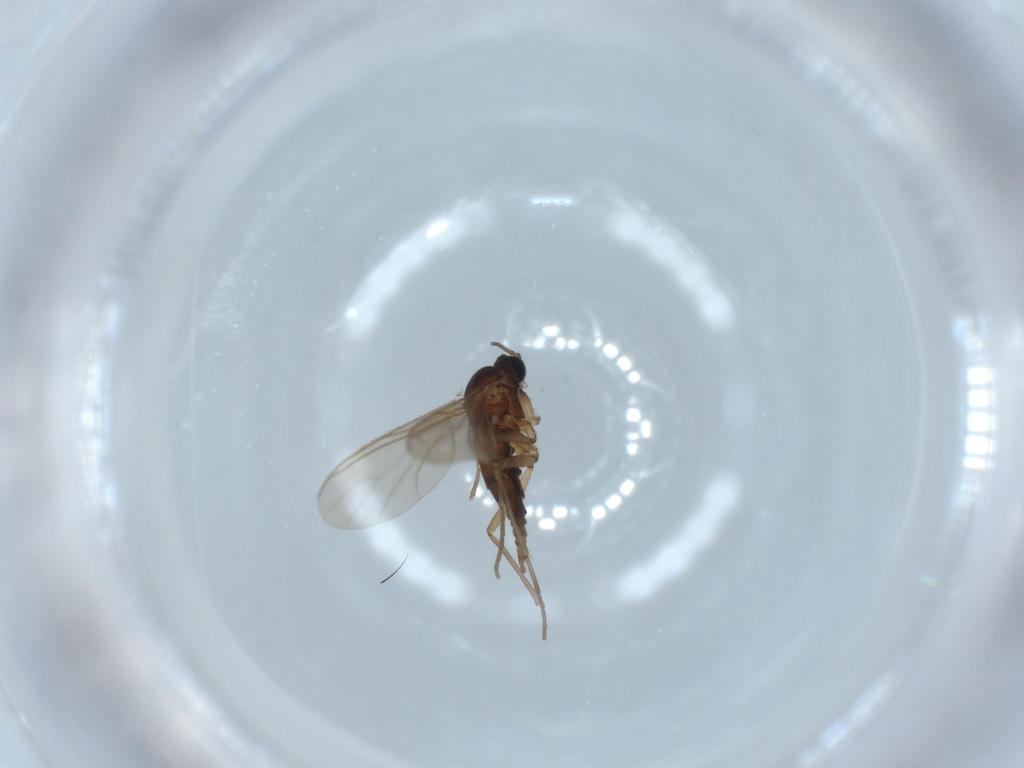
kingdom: Animalia
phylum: Arthropoda
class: Insecta
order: Diptera
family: Sciaridae
